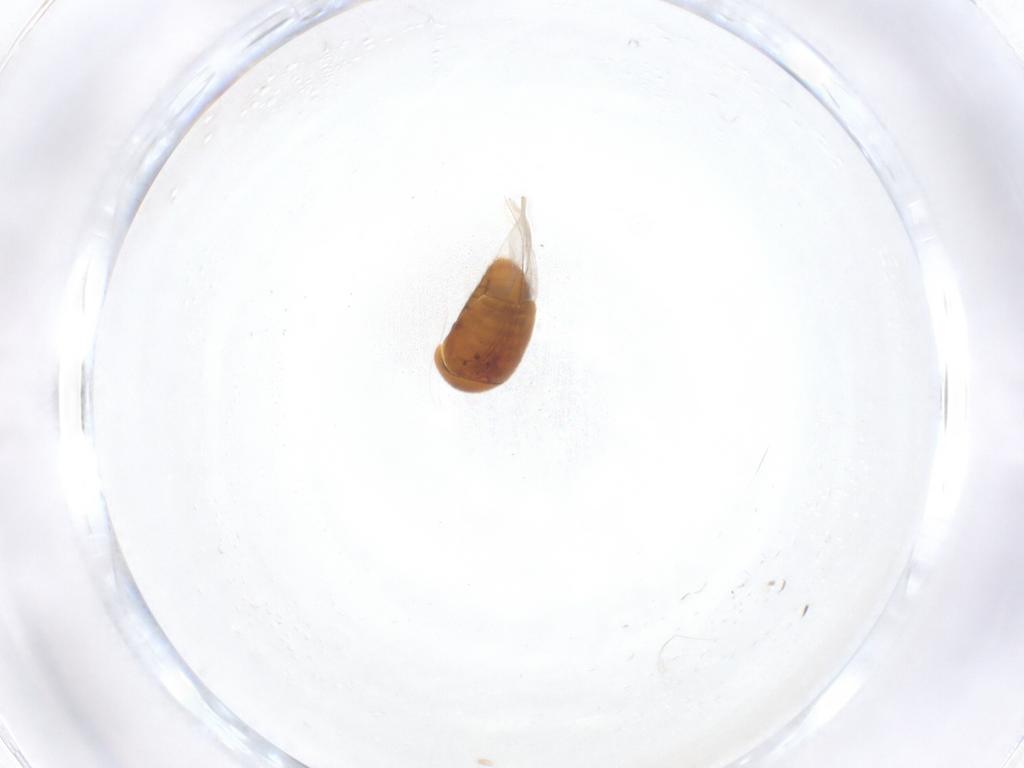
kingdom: Animalia
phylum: Arthropoda
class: Insecta
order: Coleoptera
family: Corylophidae
